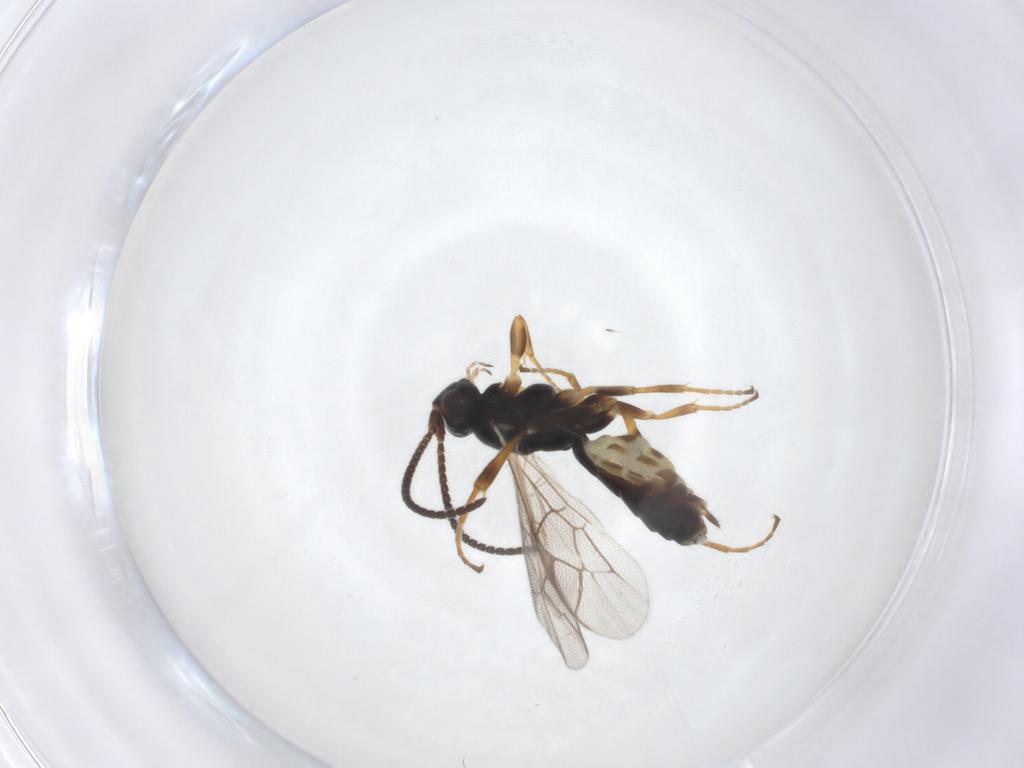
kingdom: Animalia
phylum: Arthropoda
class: Insecta
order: Hymenoptera
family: Ichneumonidae
